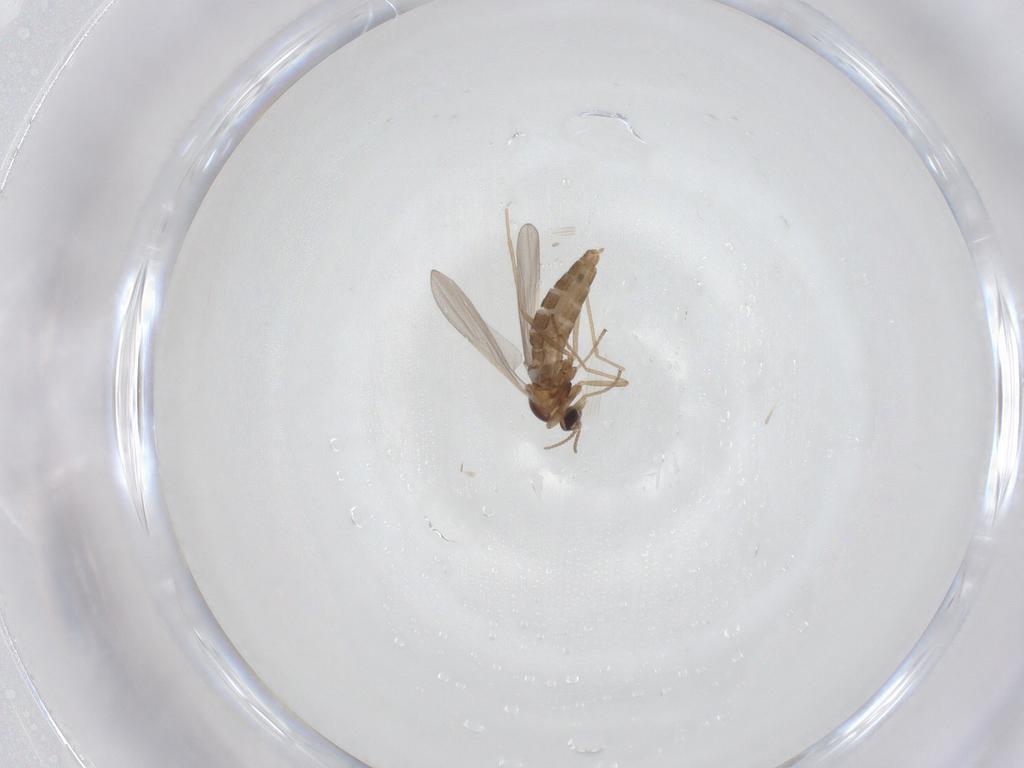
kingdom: Animalia
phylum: Arthropoda
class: Insecta
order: Diptera
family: Cecidomyiidae
